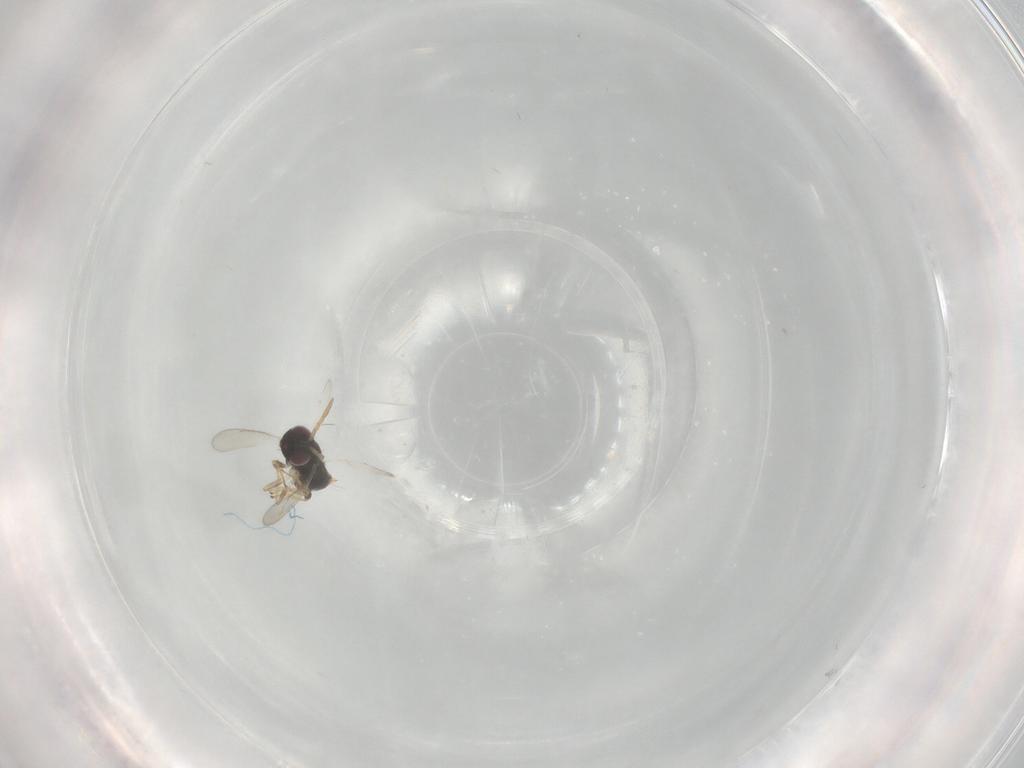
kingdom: Animalia
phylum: Arthropoda
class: Insecta
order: Hymenoptera
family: Aphelinidae
